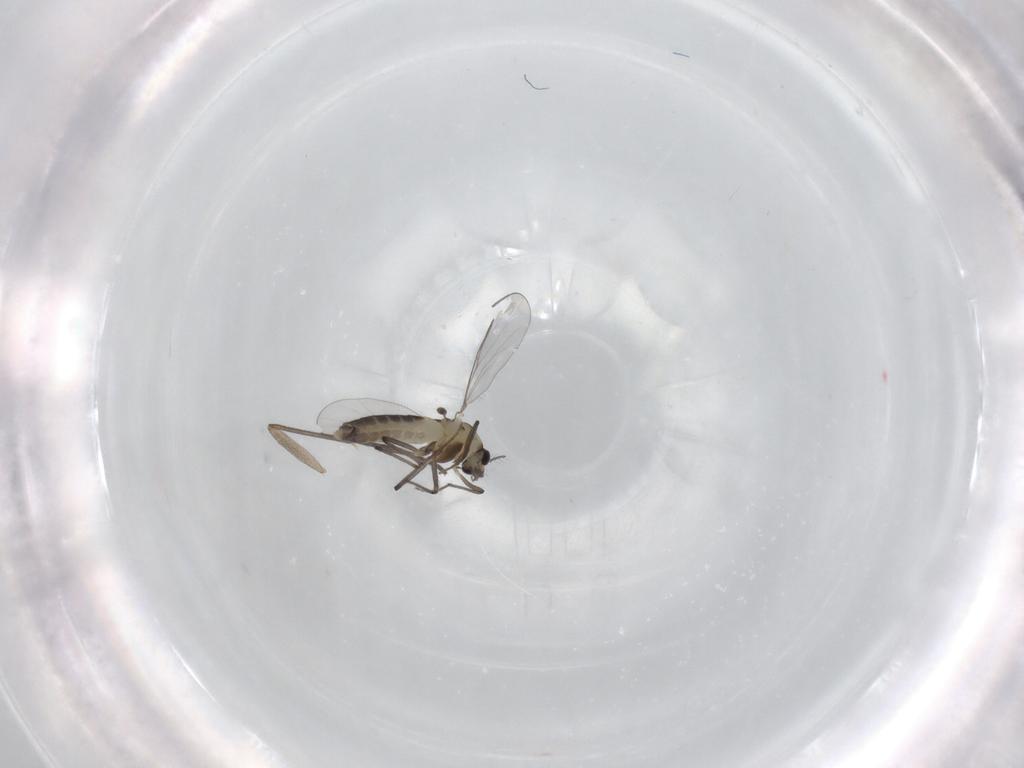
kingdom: Animalia
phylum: Arthropoda
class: Insecta
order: Diptera
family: Chironomidae
